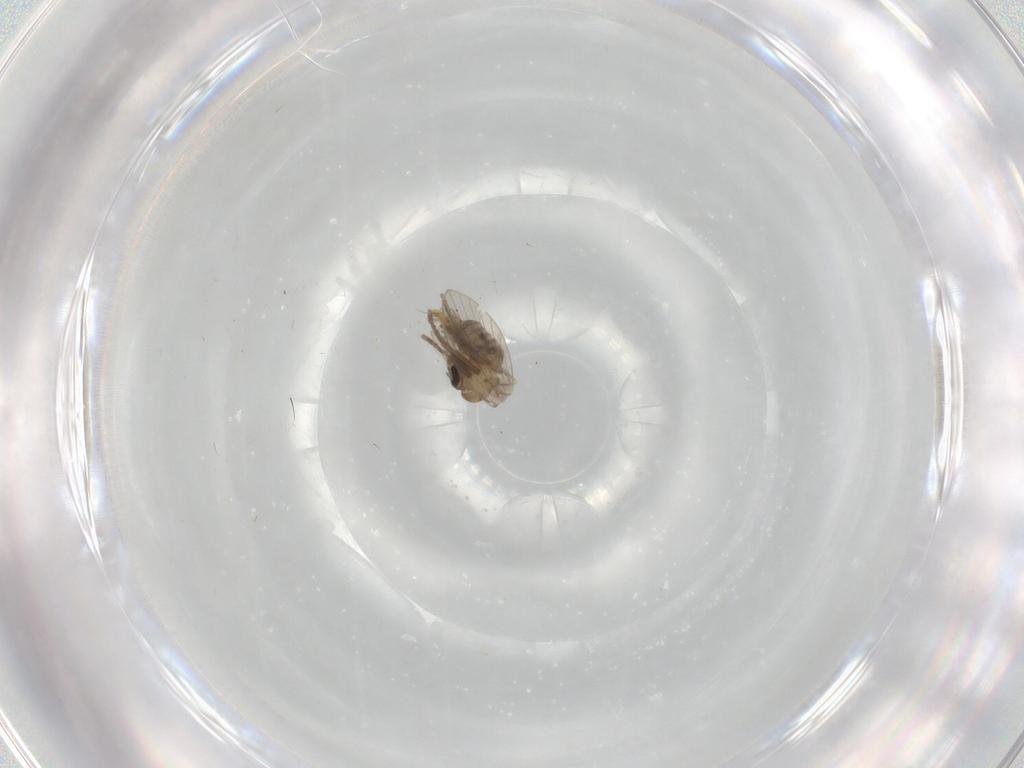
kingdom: Animalia
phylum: Arthropoda
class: Insecta
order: Diptera
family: Psychodidae
